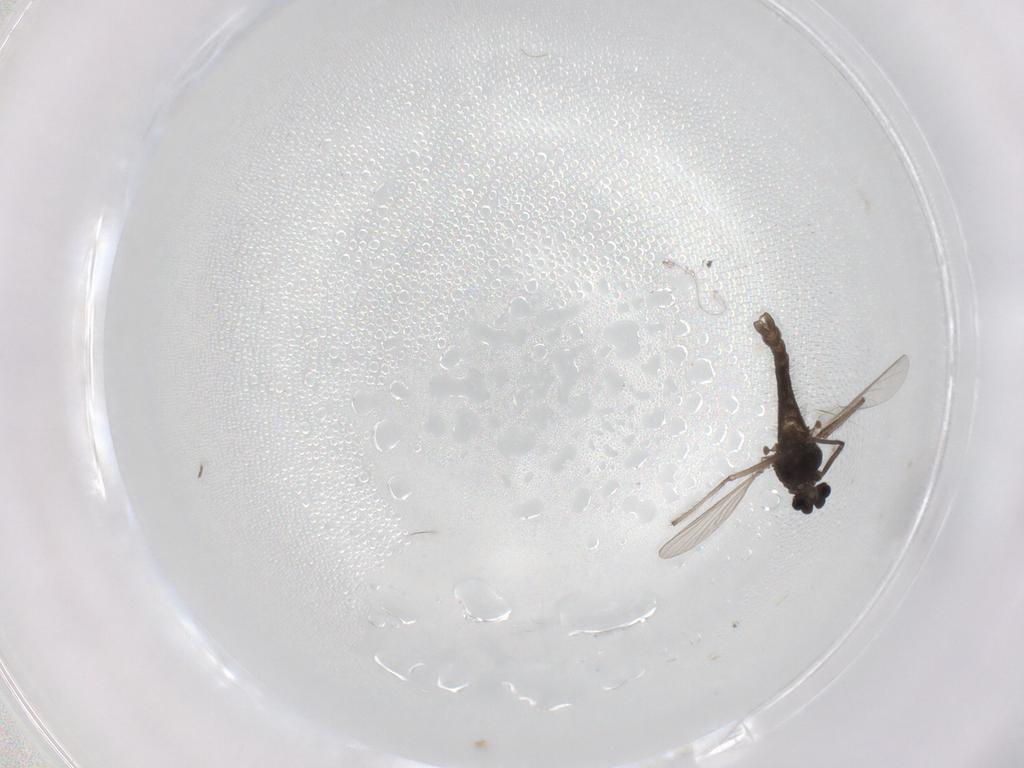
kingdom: Animalia
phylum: Arthropoda
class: Insecta
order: Diptera
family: Chironomidae
